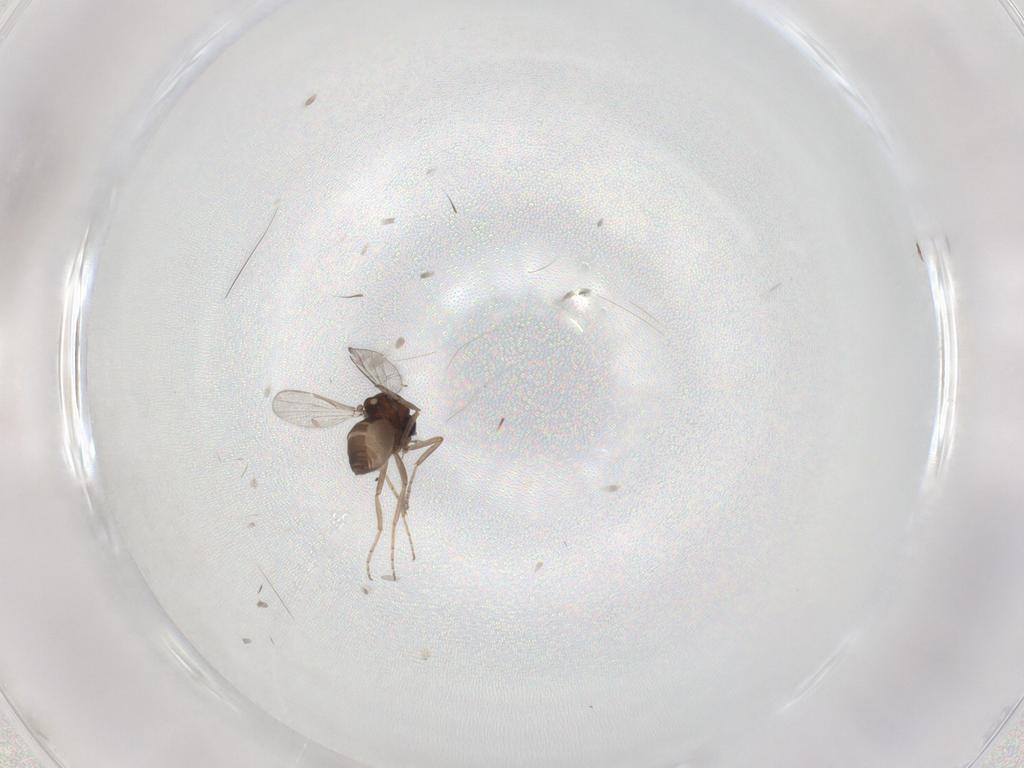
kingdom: Animalia
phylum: Arthropoda
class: Insecta
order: Diptera
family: Ceratopogonidae
